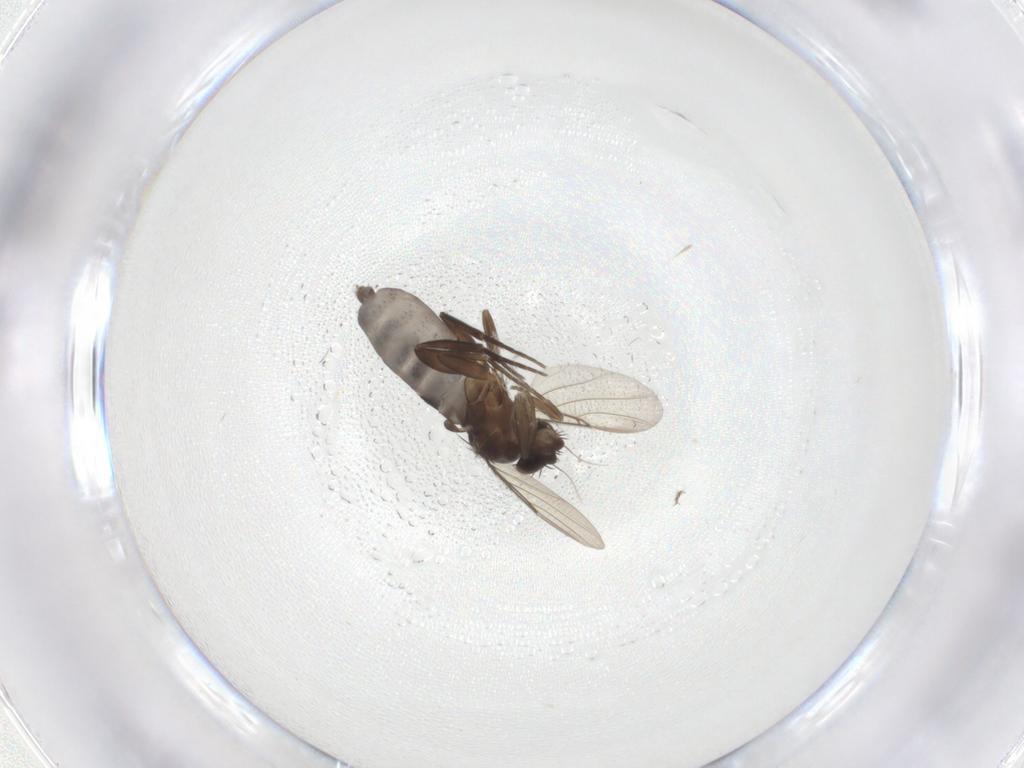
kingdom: Animalia
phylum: Arthropoda
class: Insecta
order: Diptera
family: Phoridae
